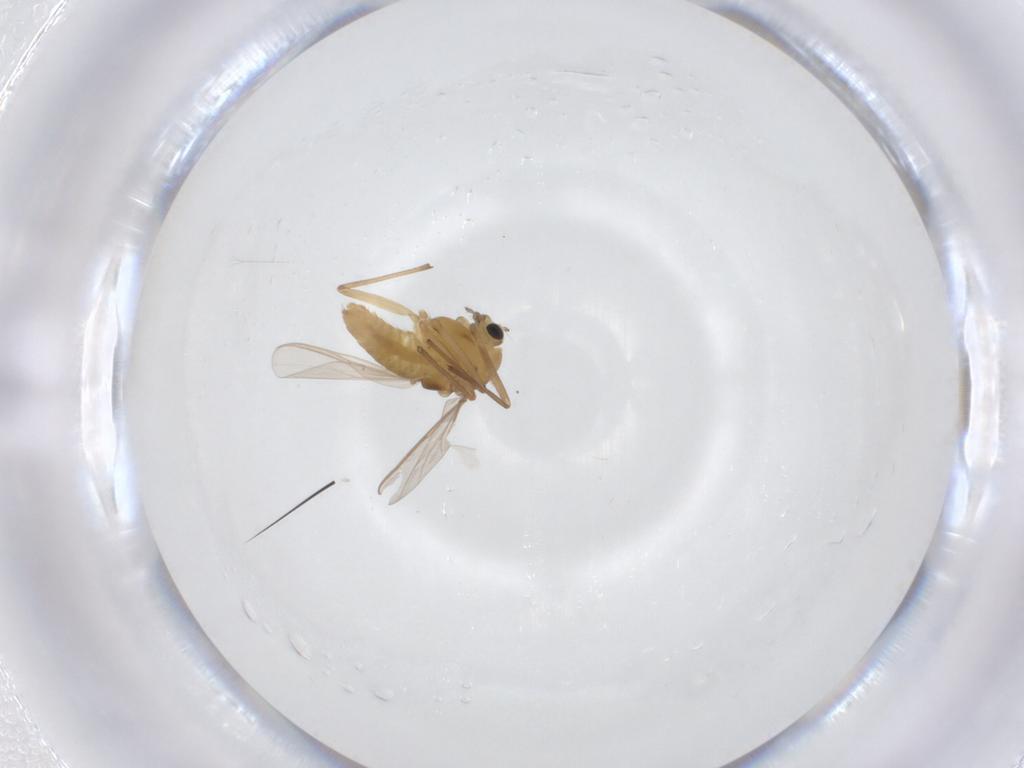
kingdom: Animalia
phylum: Arthropoda
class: Insecta
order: Diptera
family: Chironomidae
